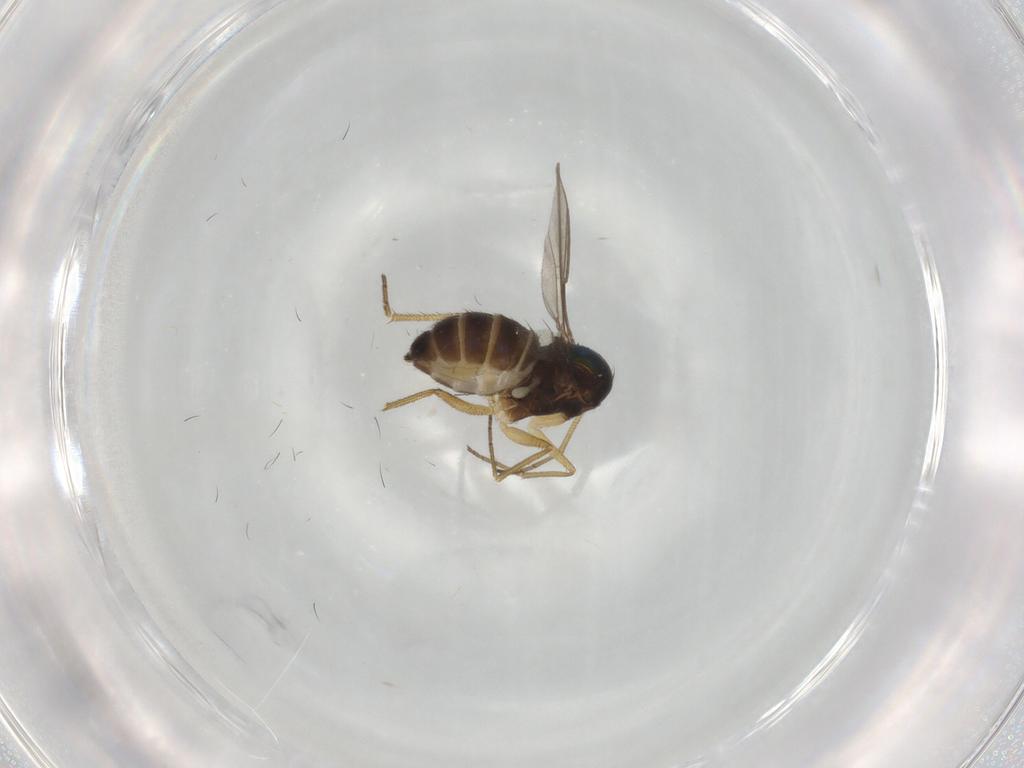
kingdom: Animalia
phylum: Arthropoda
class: Insecta
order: Diptera
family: Dolichopodidae
